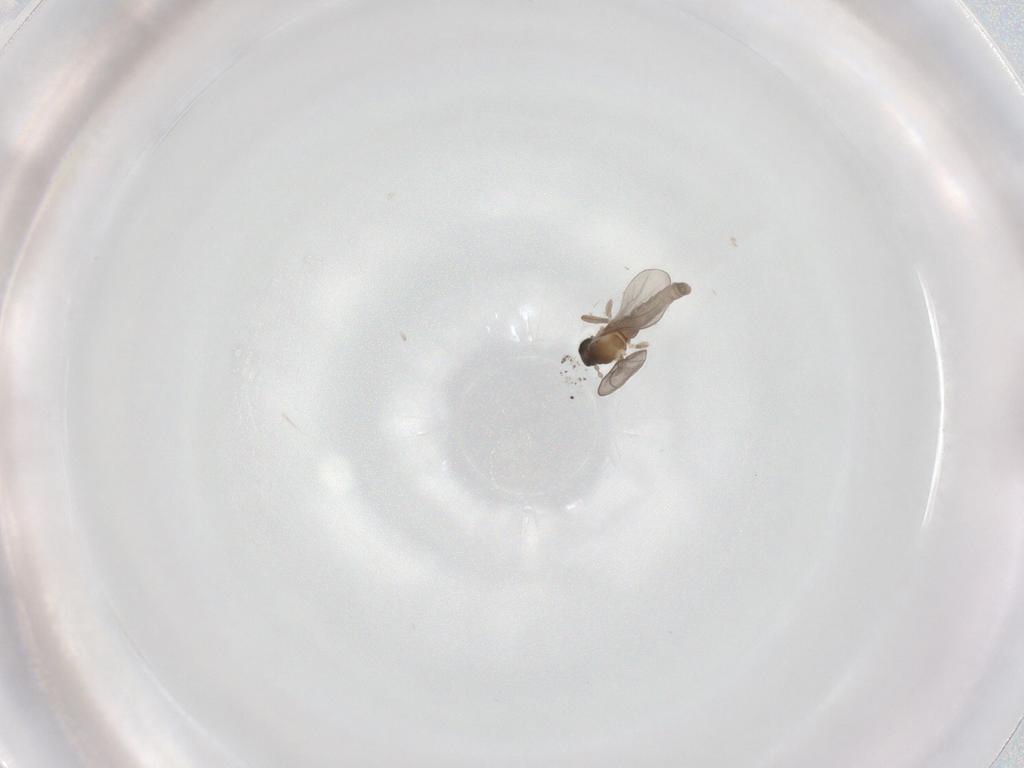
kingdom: Animalia
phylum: Arthropoda
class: Insecta
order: Diptera
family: Cecidomyiidae
